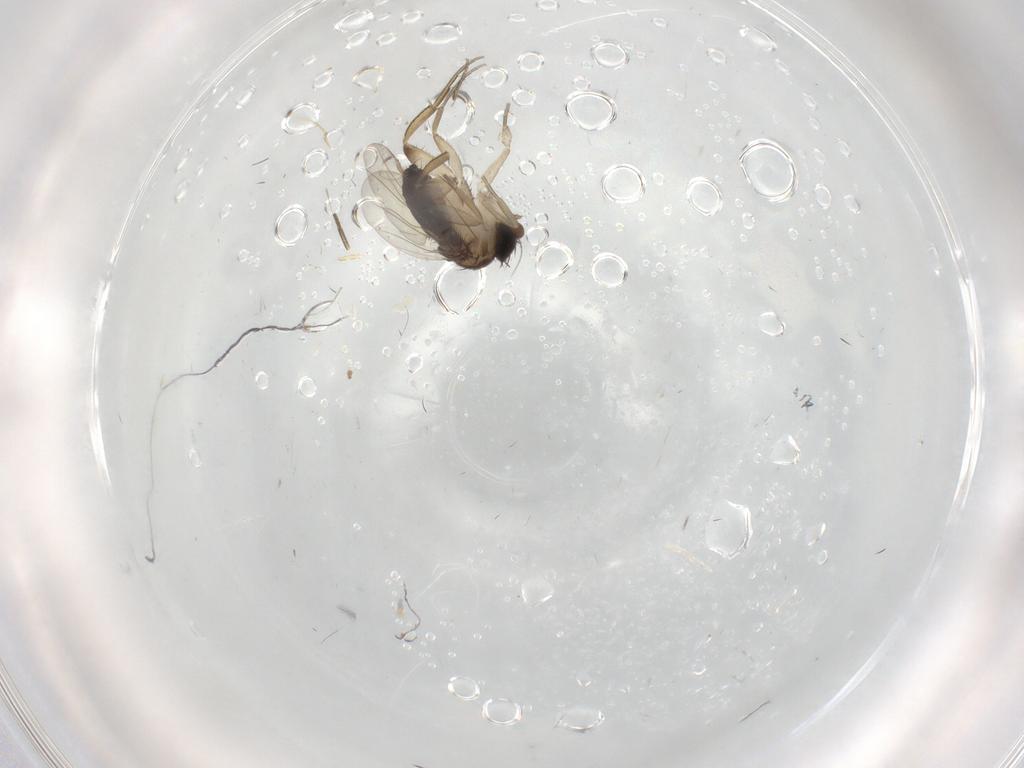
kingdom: Animalia
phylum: Arthropoda
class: Insecta
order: Diptera
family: Phoridae
